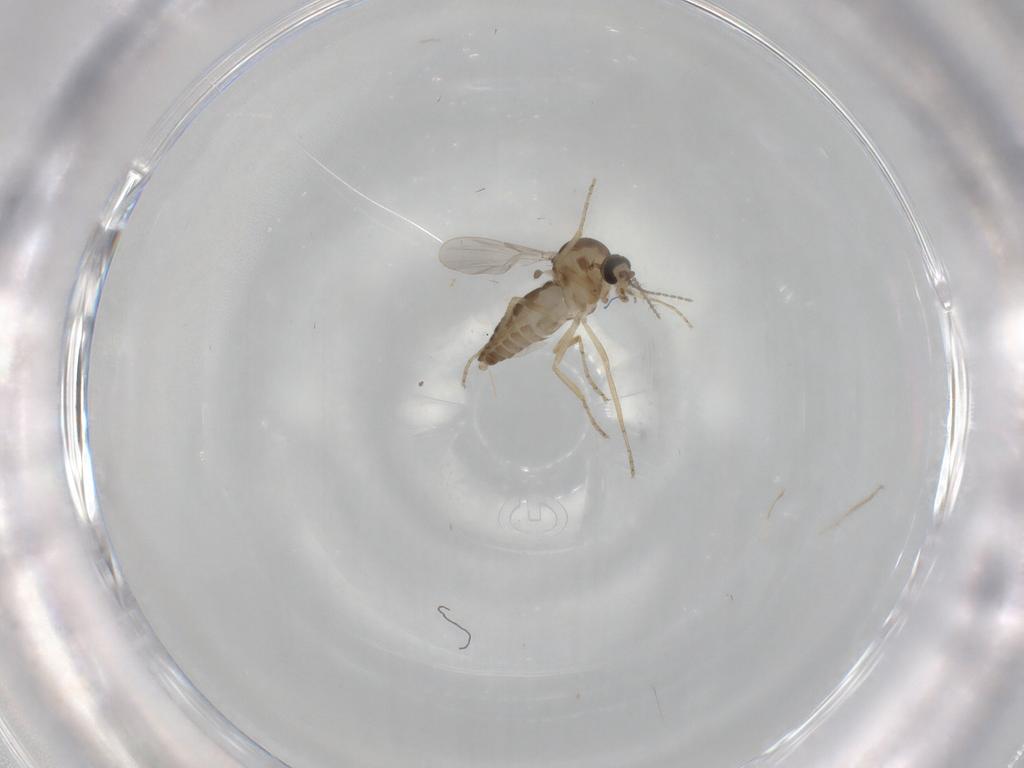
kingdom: Animalia
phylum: Arthropoda
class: Insecta
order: Diptera
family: Ceratopogonidae
